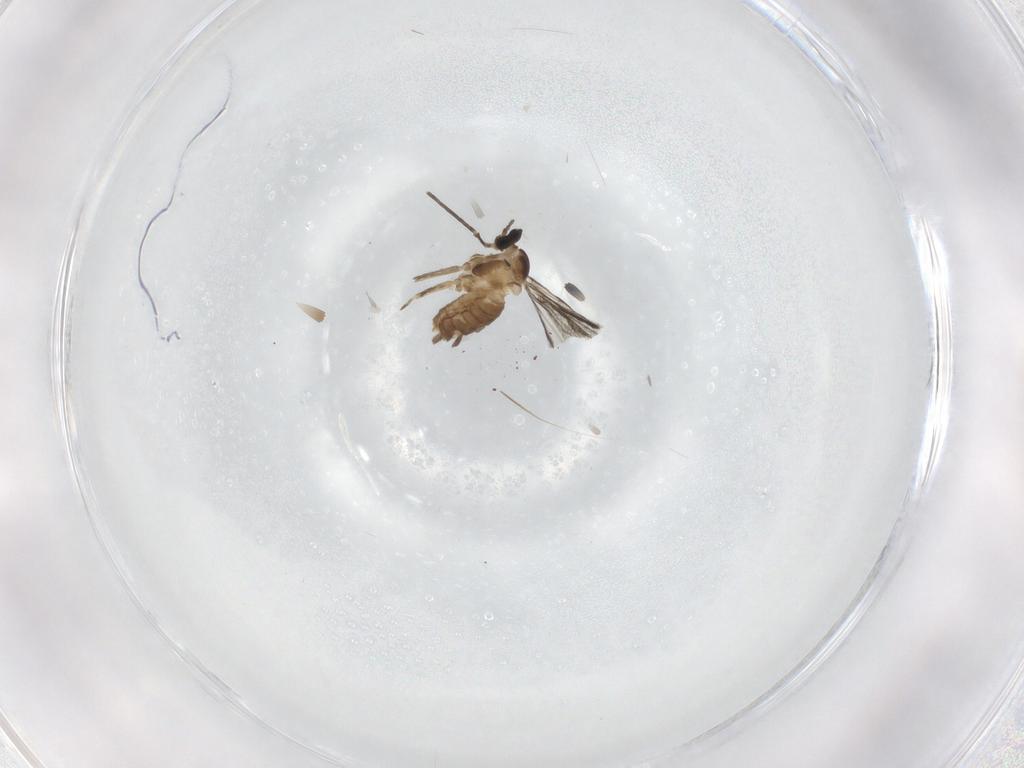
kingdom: Animalia
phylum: Arthropoda
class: Insecta
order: Diptera
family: Cecidomyiidae
